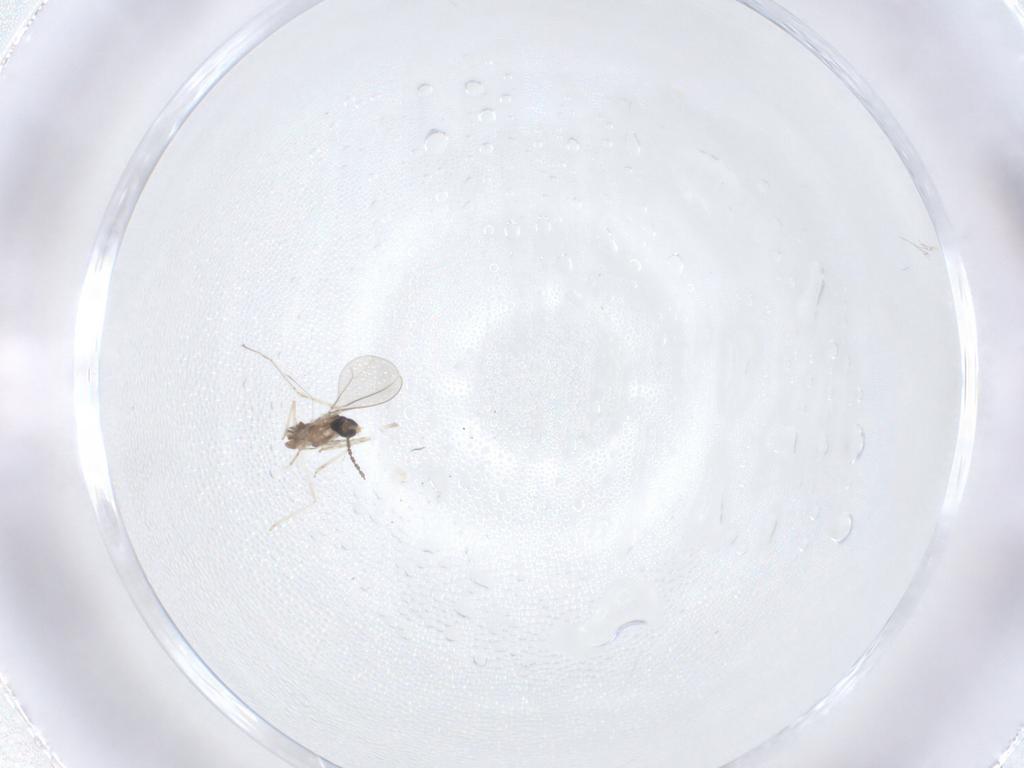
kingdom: Animalia
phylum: Arthropoda
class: Insecta
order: Diptera
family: Cecidomyiidae
